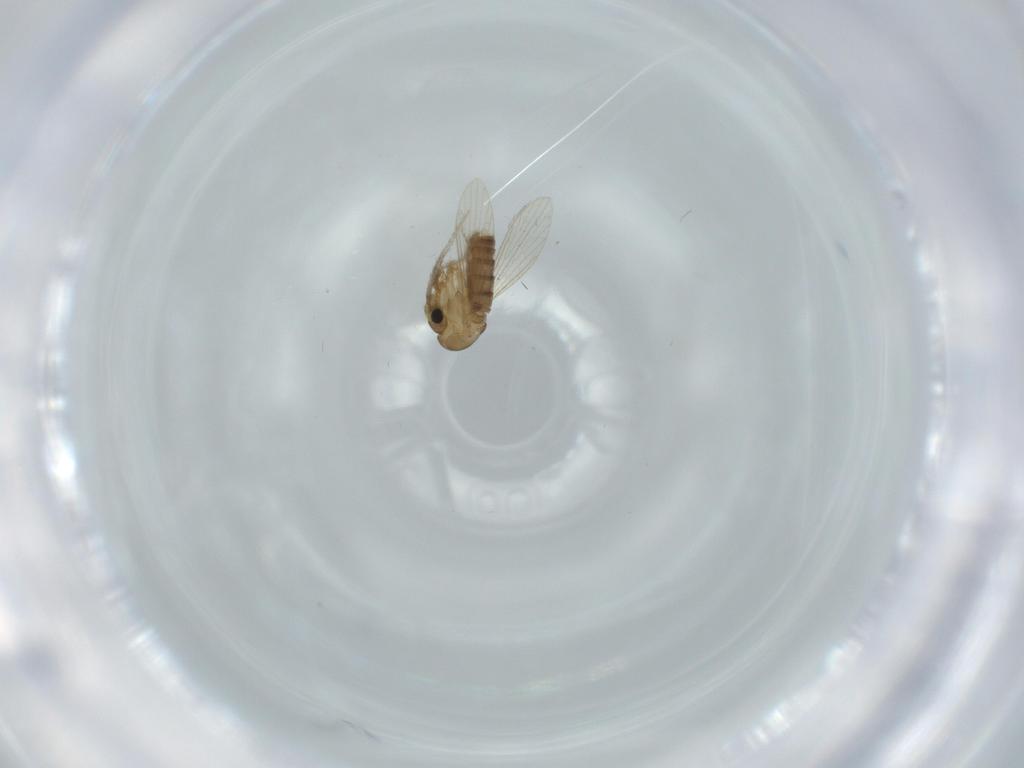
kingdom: Animalia
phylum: Arthropoda
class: Insecta
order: Diptera
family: Psychodidae
